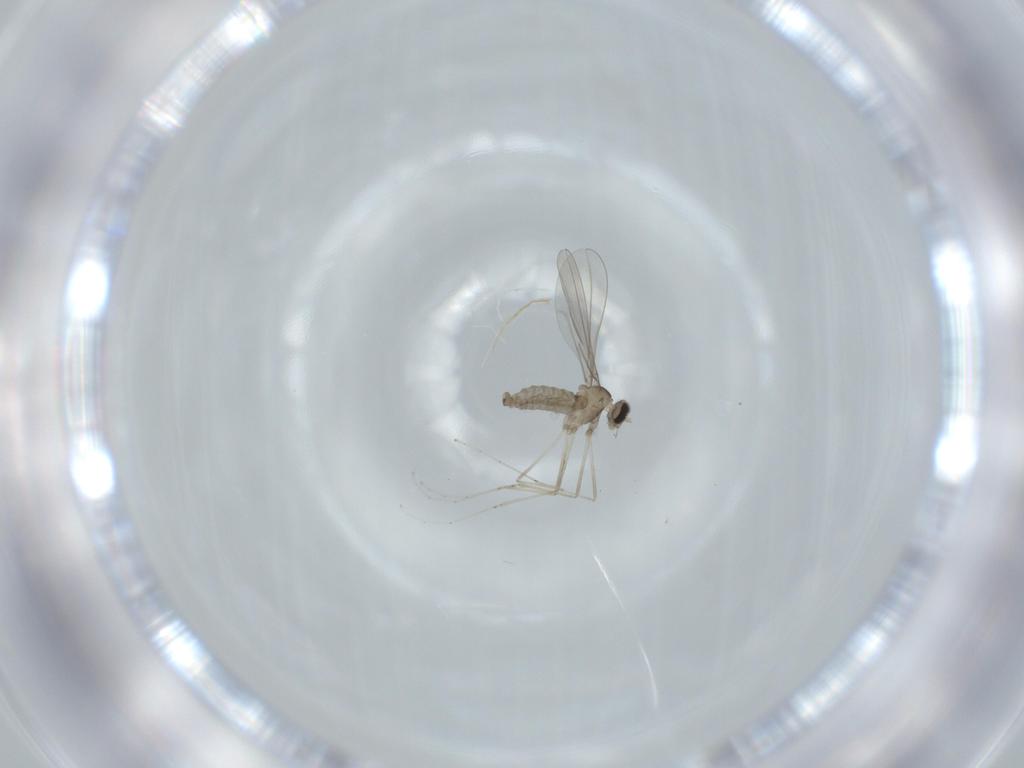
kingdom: Animalia
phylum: Arthropoda
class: Insecta
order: Diptera
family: Cecidomyiidae
